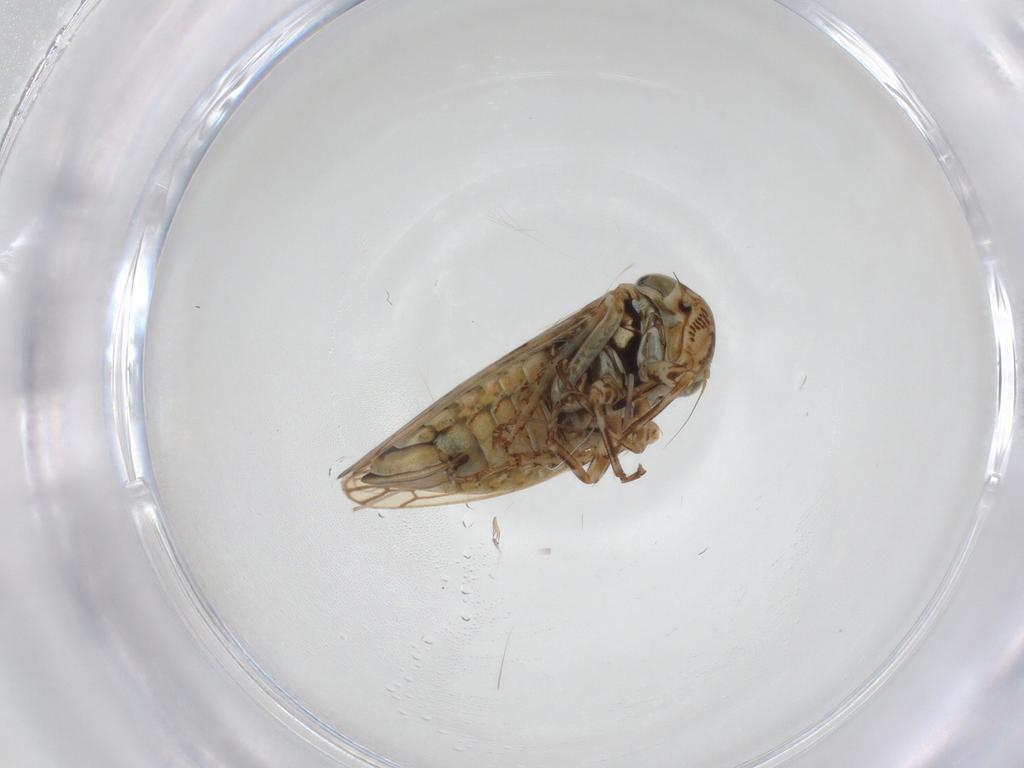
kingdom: Animalia
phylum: Arthropoda
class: Insecta
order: Hemiptera
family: Cicadellidae
